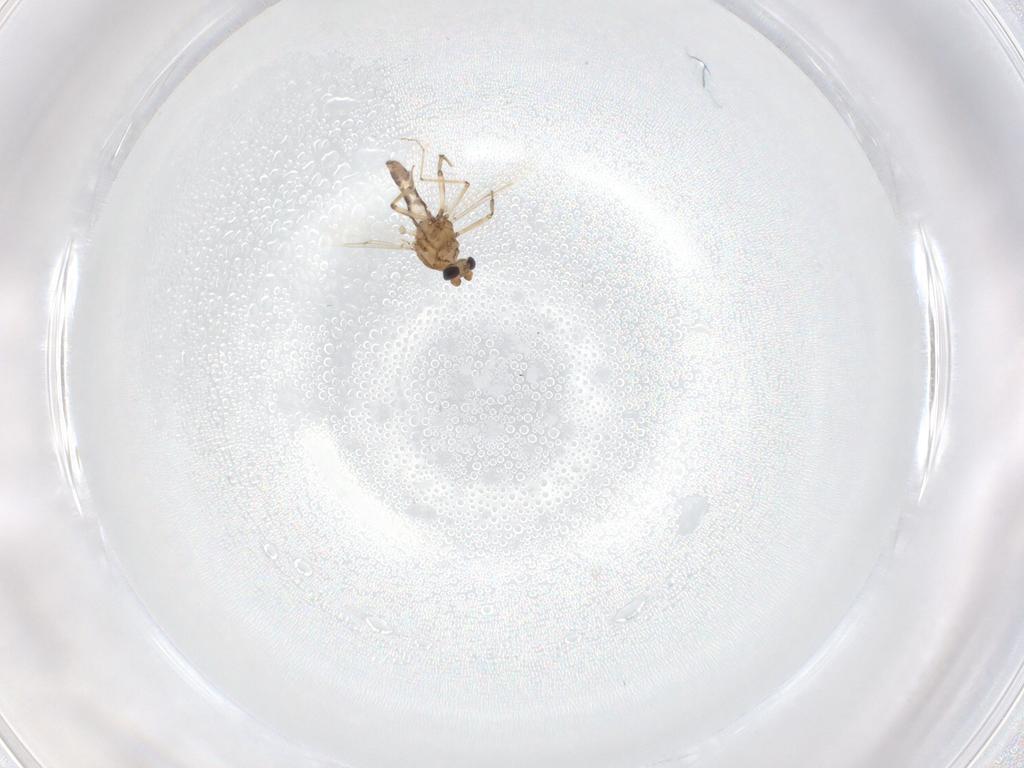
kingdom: Animalia
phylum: Arthropoda
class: Insecta
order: Diptera
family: Ceratopogonidae
